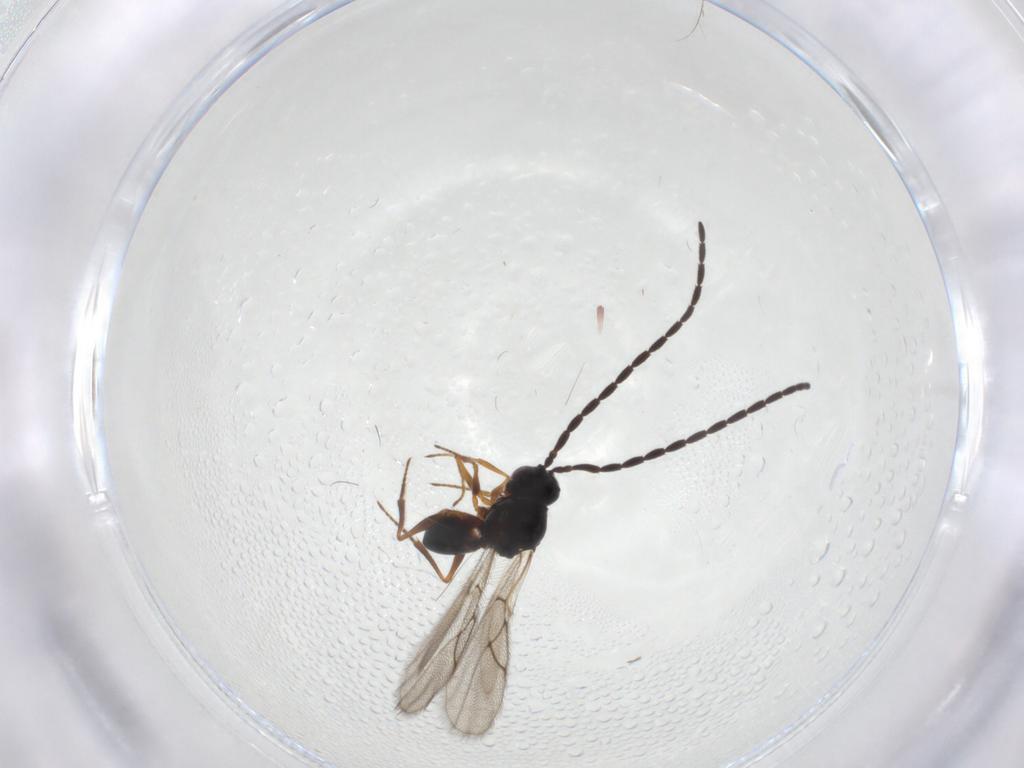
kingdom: Animalia
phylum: Arthropoda
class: Insecta
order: Hymenoptera
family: Figitidae
